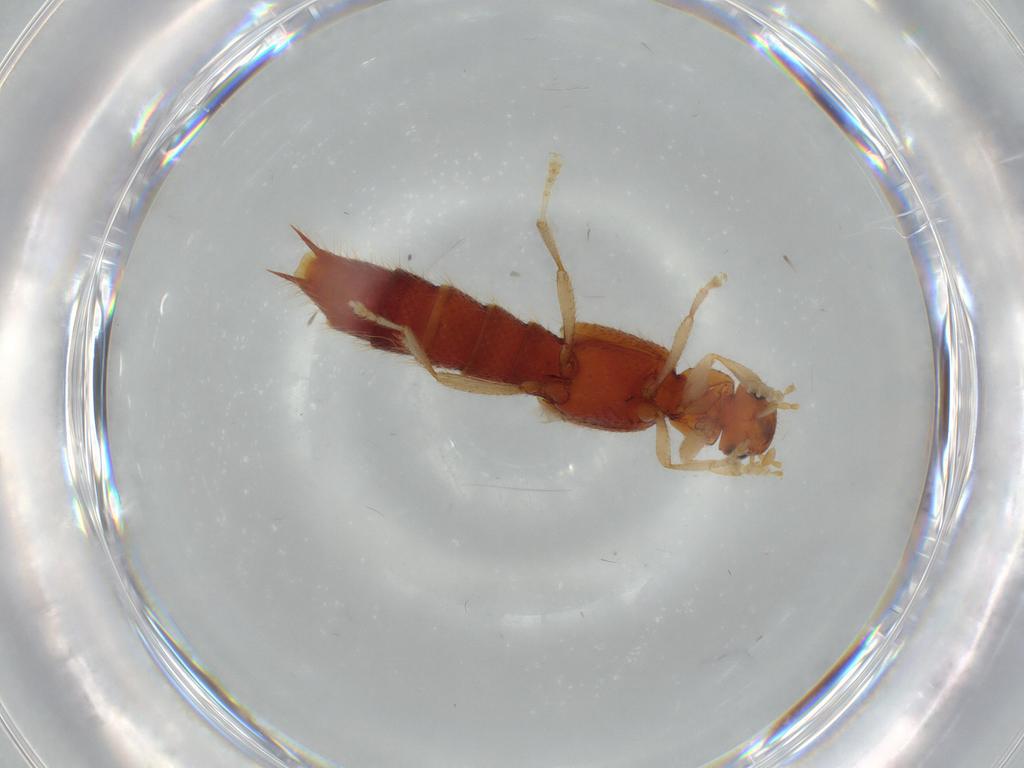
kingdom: Animalia
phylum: Arthropoda
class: Insecta
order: Coleoptera
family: Staphylinidae
